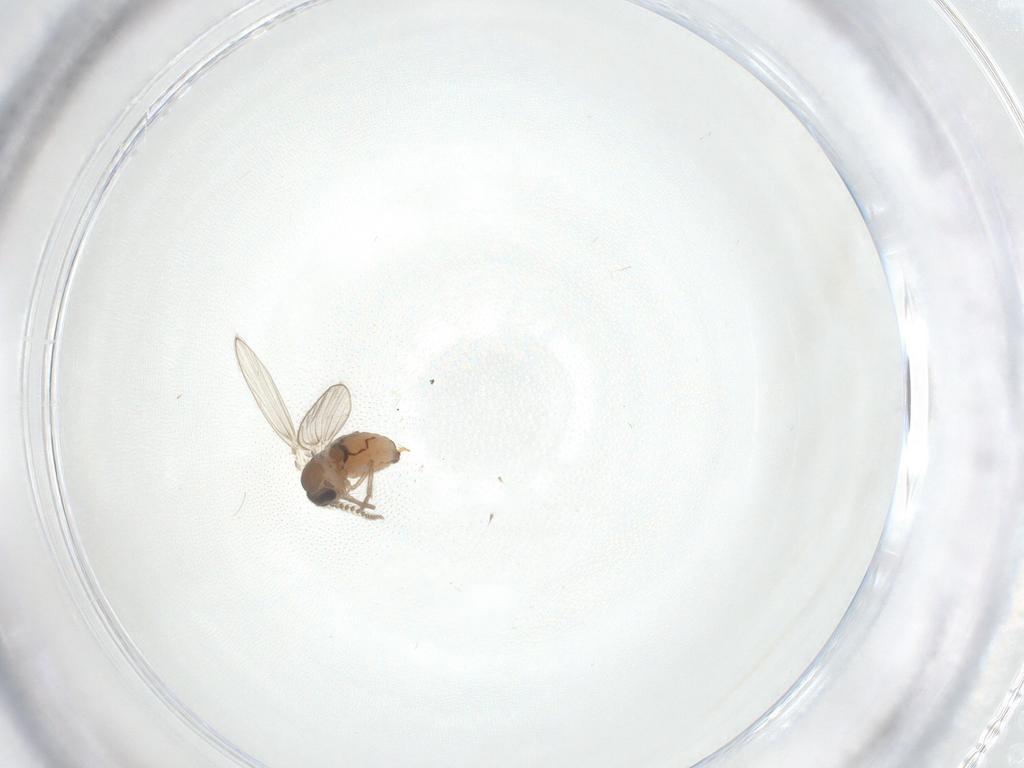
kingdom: Animalia
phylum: Arthropoda
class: Insecta
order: Diptera
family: Psychodidae
